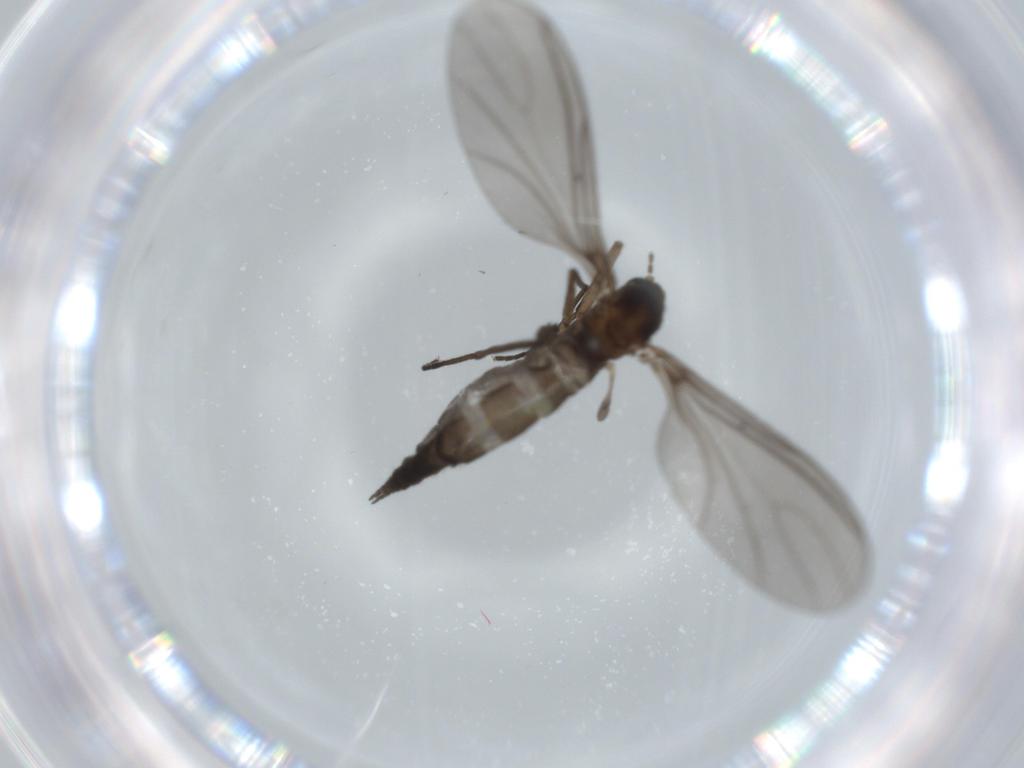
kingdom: Animalia
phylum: Arthropoda
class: Insecta
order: Diptera
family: Sciaridae
